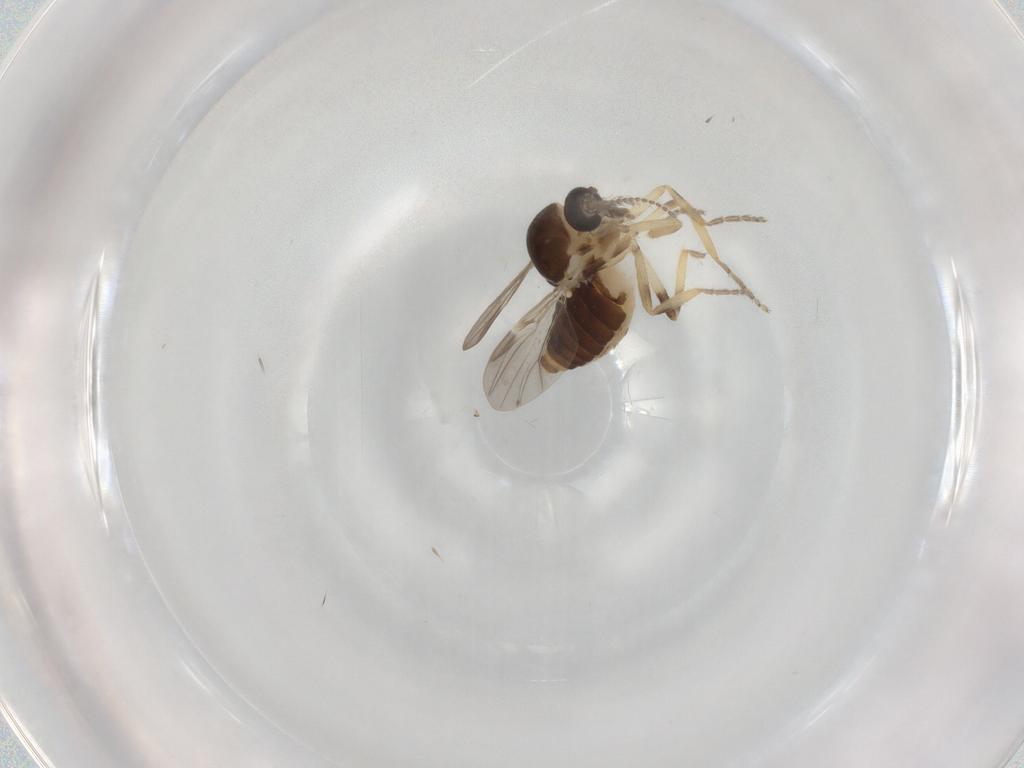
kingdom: Animalia
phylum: Arthropoda
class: Insecta
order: Diptera
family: Ceratopogonidae
